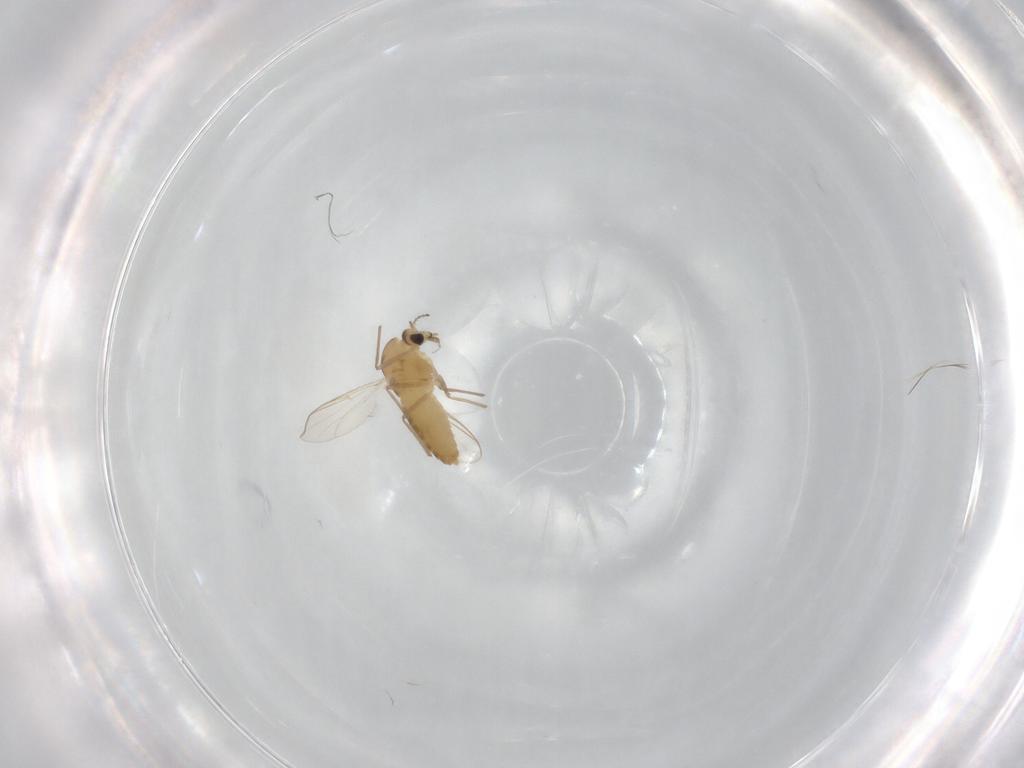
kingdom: Animalia
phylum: Arthropoda
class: Insecta
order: Diptera
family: Chironomidae
